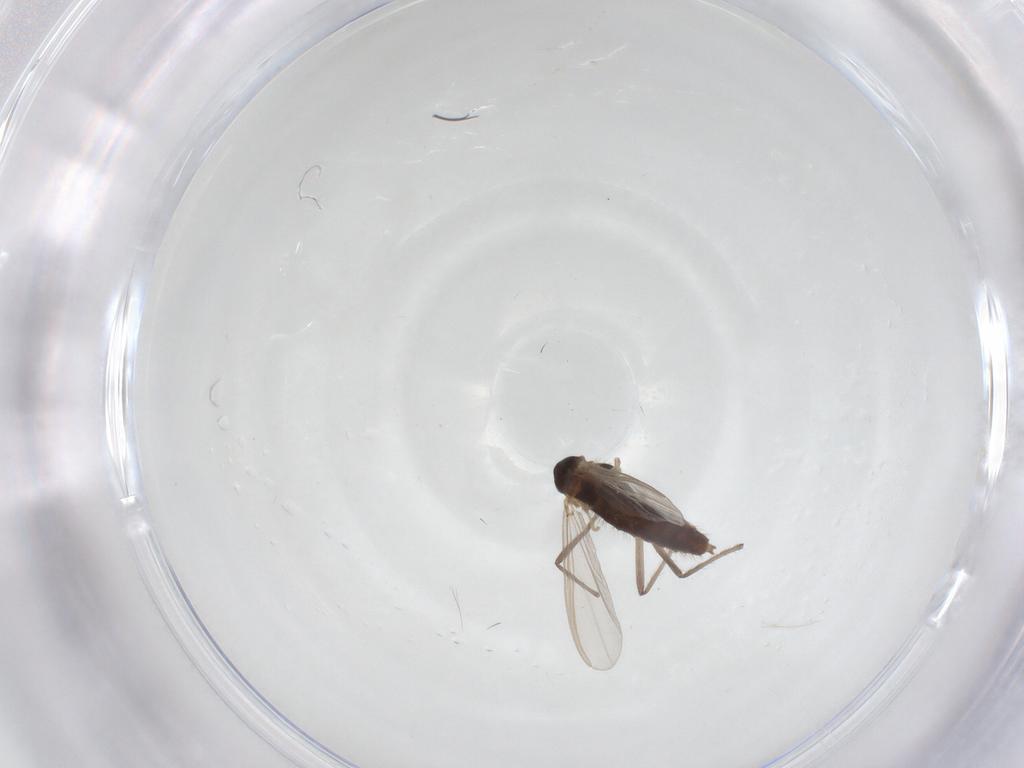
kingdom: Animalia
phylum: Arthropoda
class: Insecta
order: Diptera
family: Sciaridae
